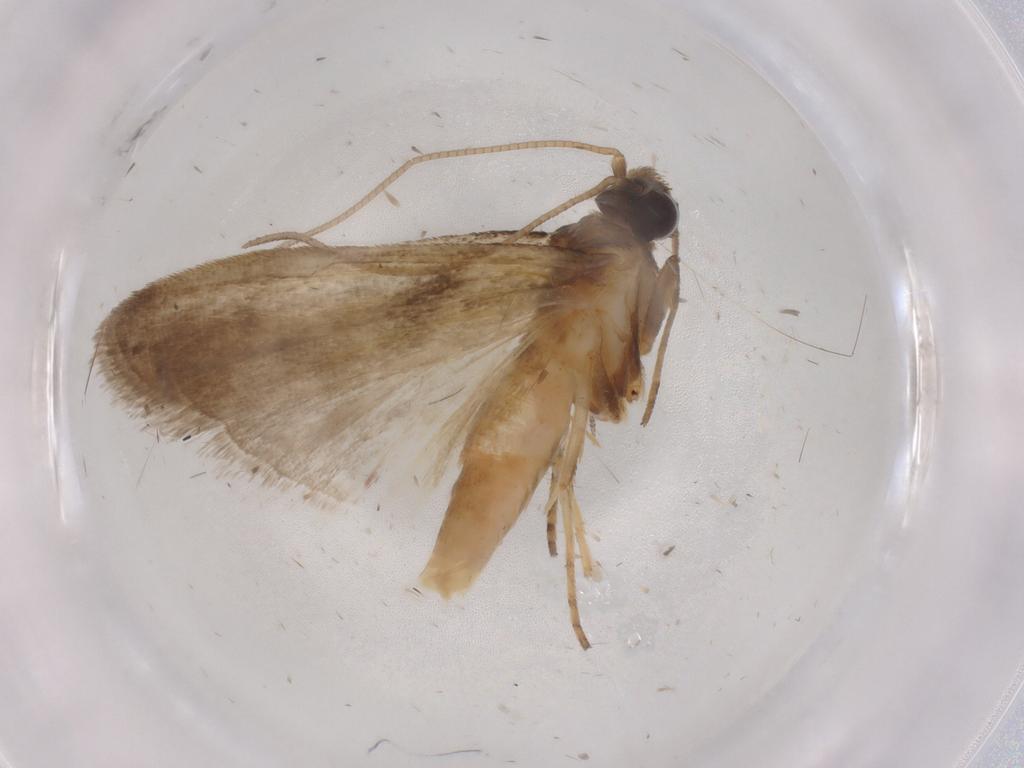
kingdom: Animalia
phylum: Arthropoda
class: Insecta
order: Lepidoptera
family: Noctuidae
